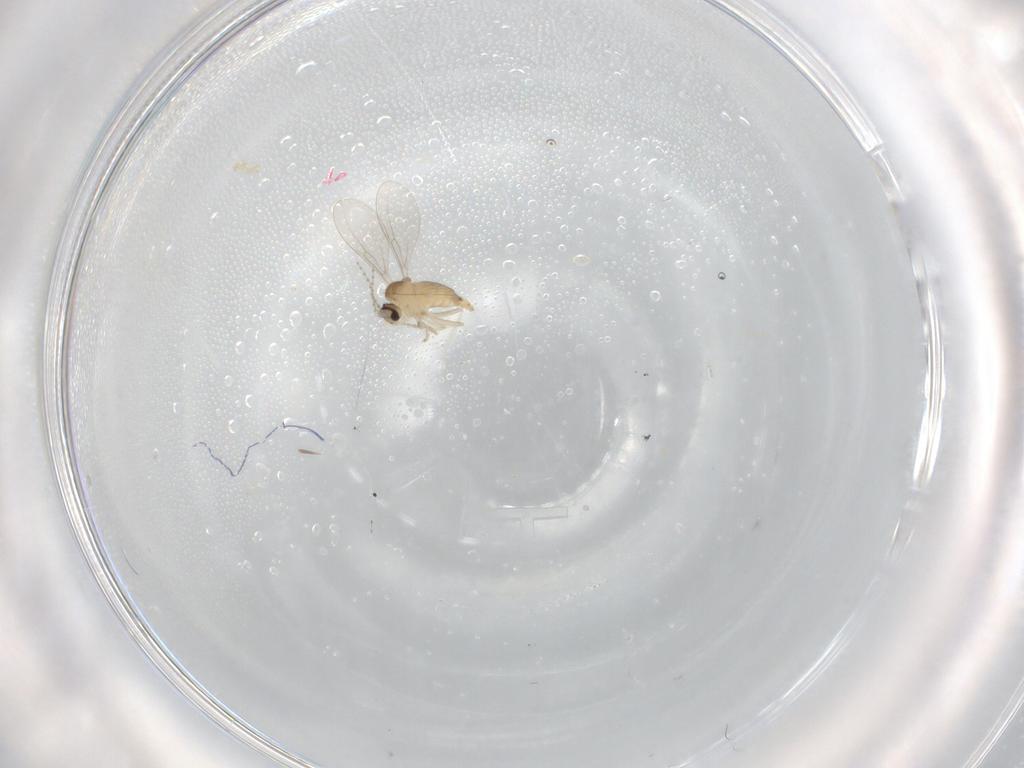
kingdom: Animalia
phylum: Arthropoda
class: Insecta
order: Diptera
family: Cecidomyiidae
